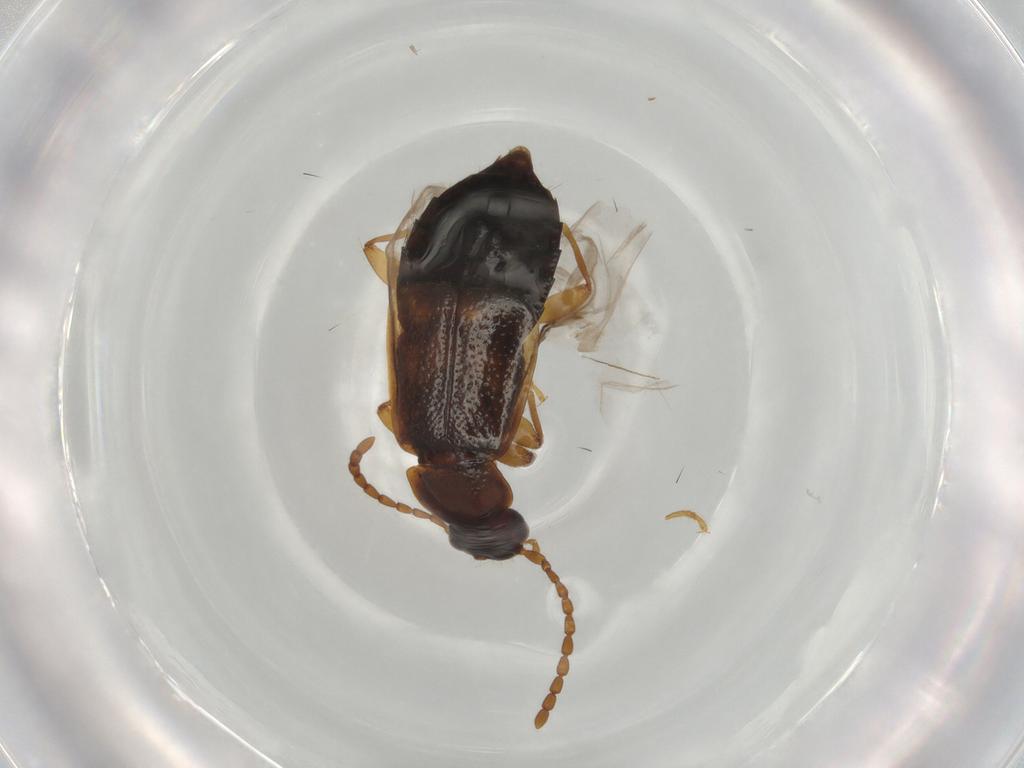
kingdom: Animalia
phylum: Arthropoda
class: Insecta
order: Coleoptera
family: Staphylinidae
